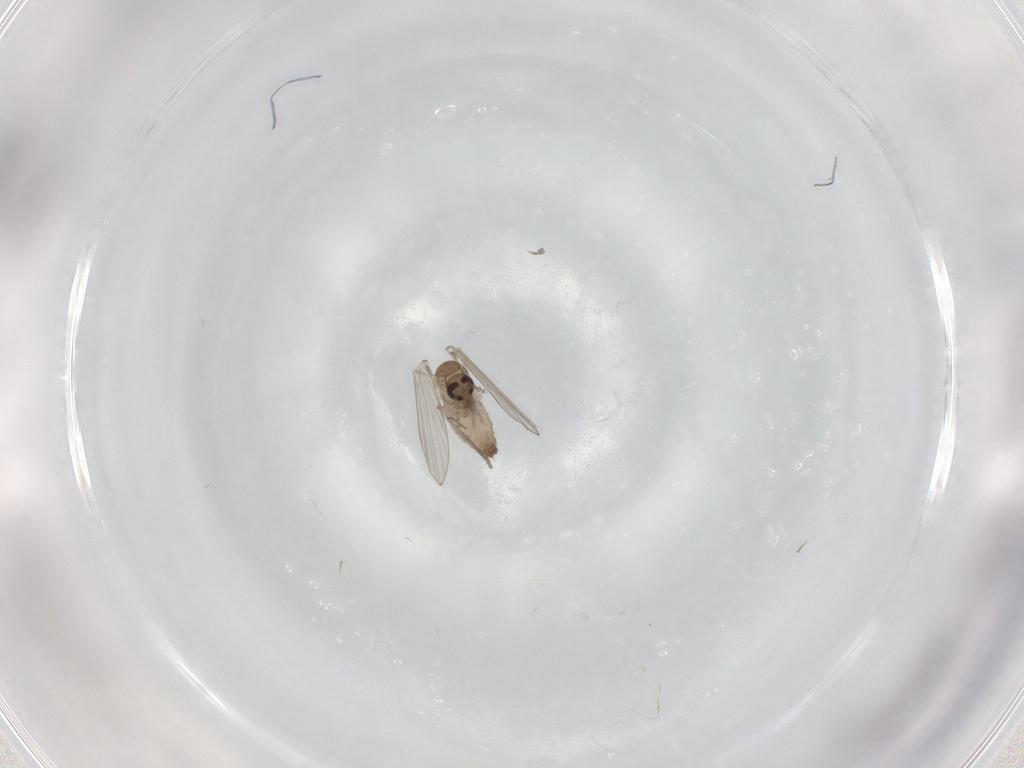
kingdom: Animalia
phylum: Arthropoda
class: Insecta
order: Diptera
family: Psychodidae
